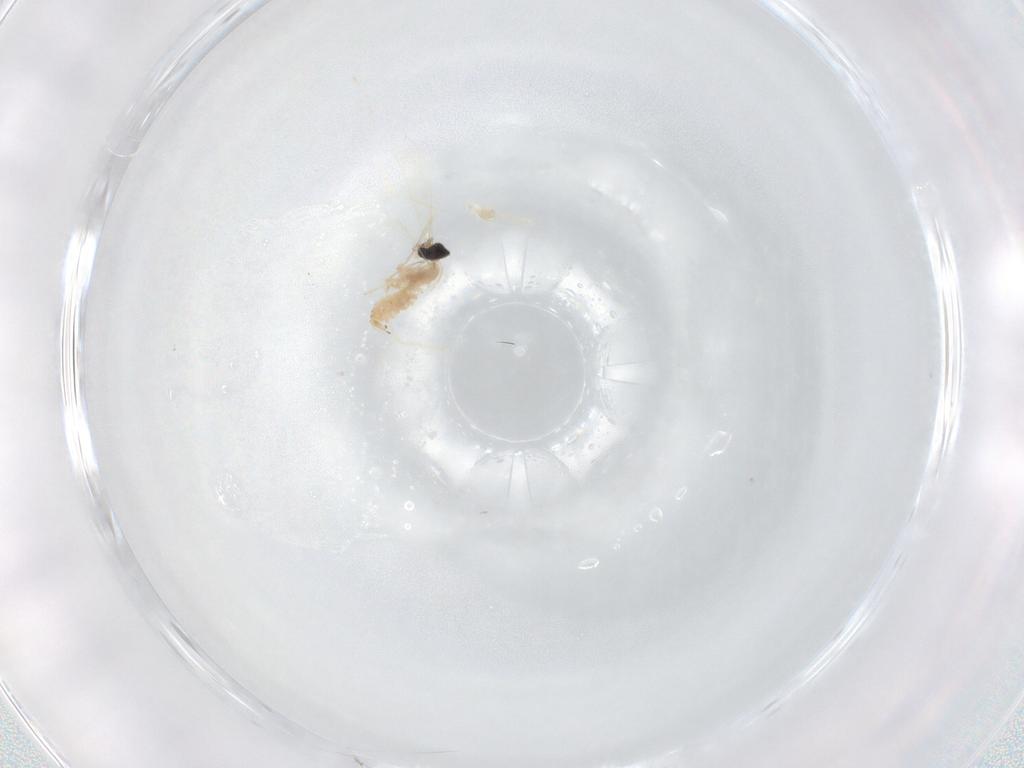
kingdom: Animalia
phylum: Arthropoda
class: Insecta
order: Diptera
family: Cecidomyiidae
